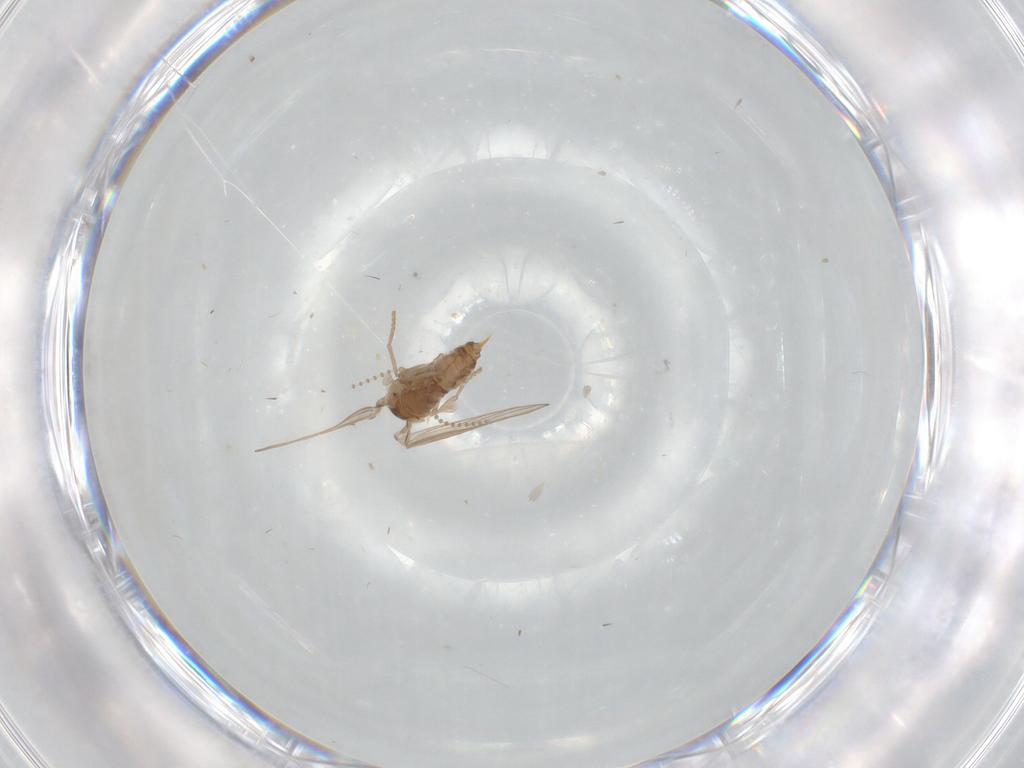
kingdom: Animalia
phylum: Arthropoda
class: Insecta
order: Diptera
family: Psychodidae
